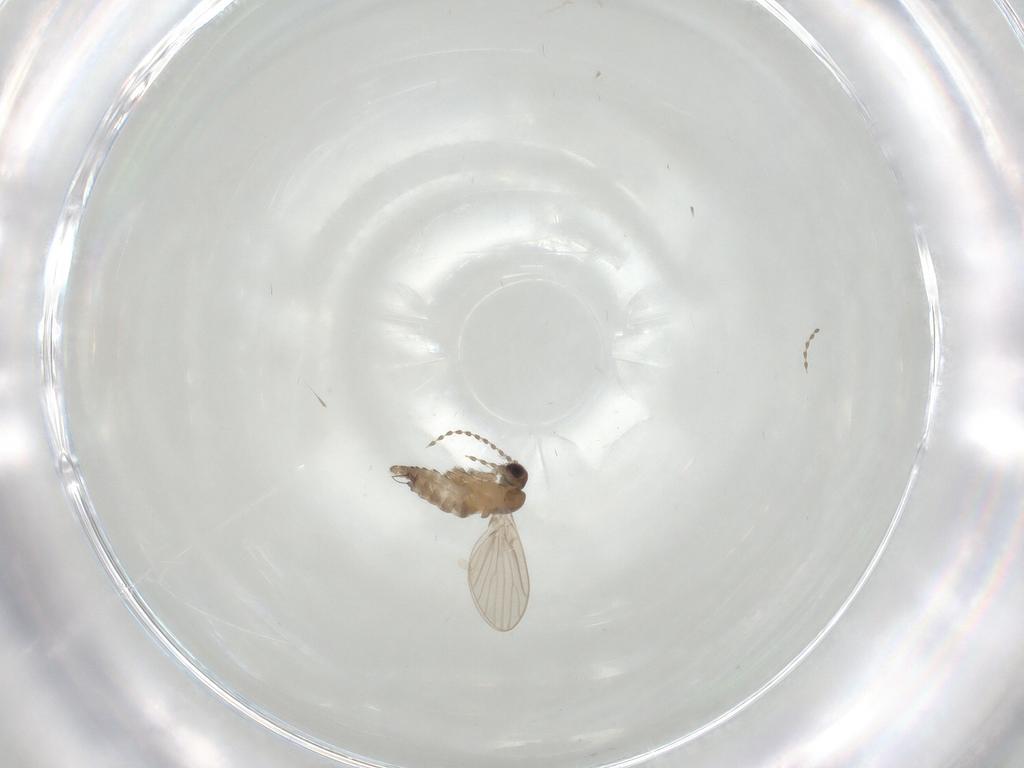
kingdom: Animalia
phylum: Arthropoda
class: Insecta
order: Diptera
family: Psychodidae
